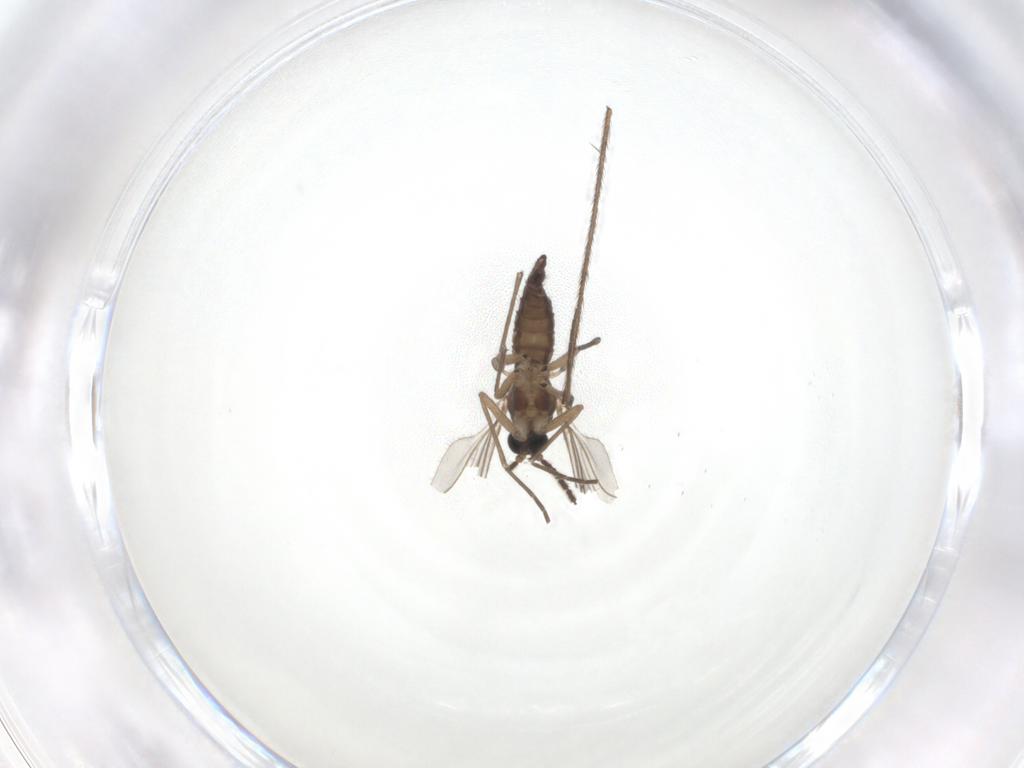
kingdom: Animalia
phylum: Arthropoda
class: Insecta
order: Diptera
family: Sciaridae
